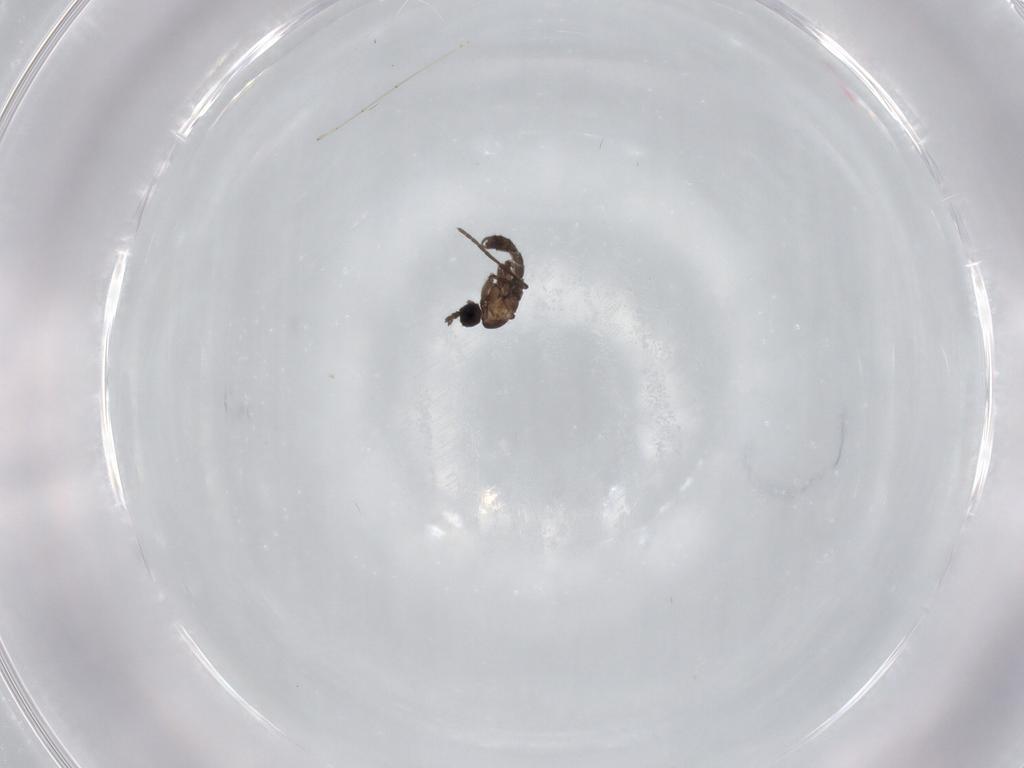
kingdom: Animalia
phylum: Arthropoda
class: Insecta
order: Diptera
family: Sciaridae
